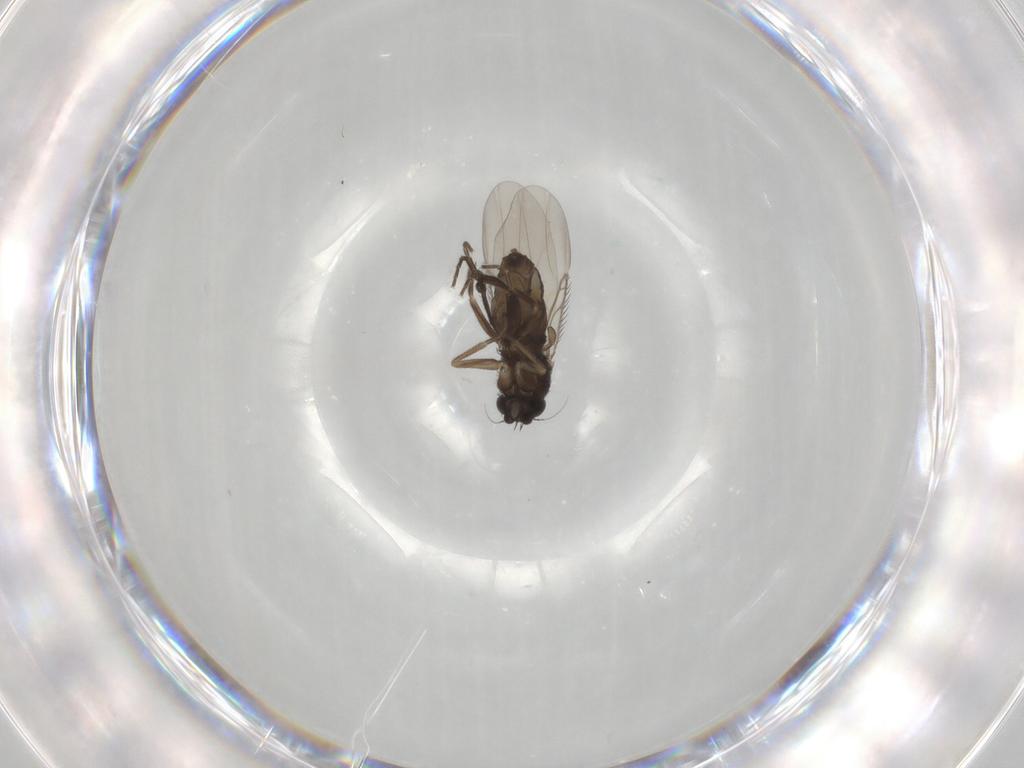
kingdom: Animalia
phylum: Arthropoda
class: Insecta
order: Diptera
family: Phoridae
